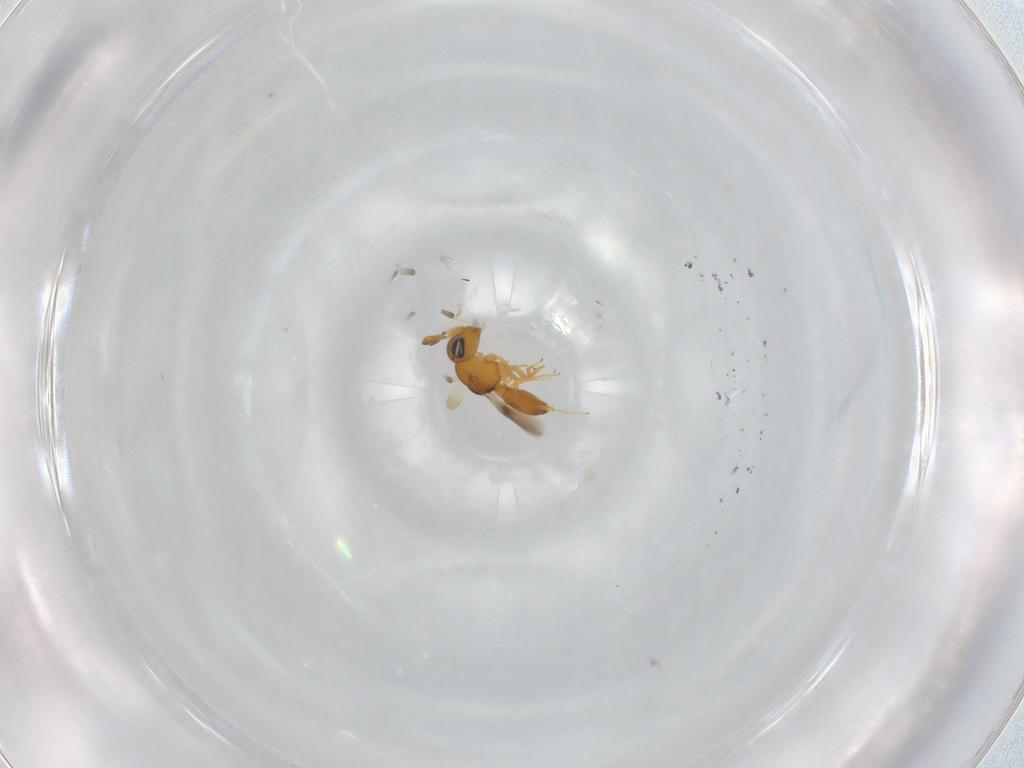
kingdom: Animalia
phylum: Arthropoda
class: Insecta
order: Hymenoptera
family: Scelionidae
